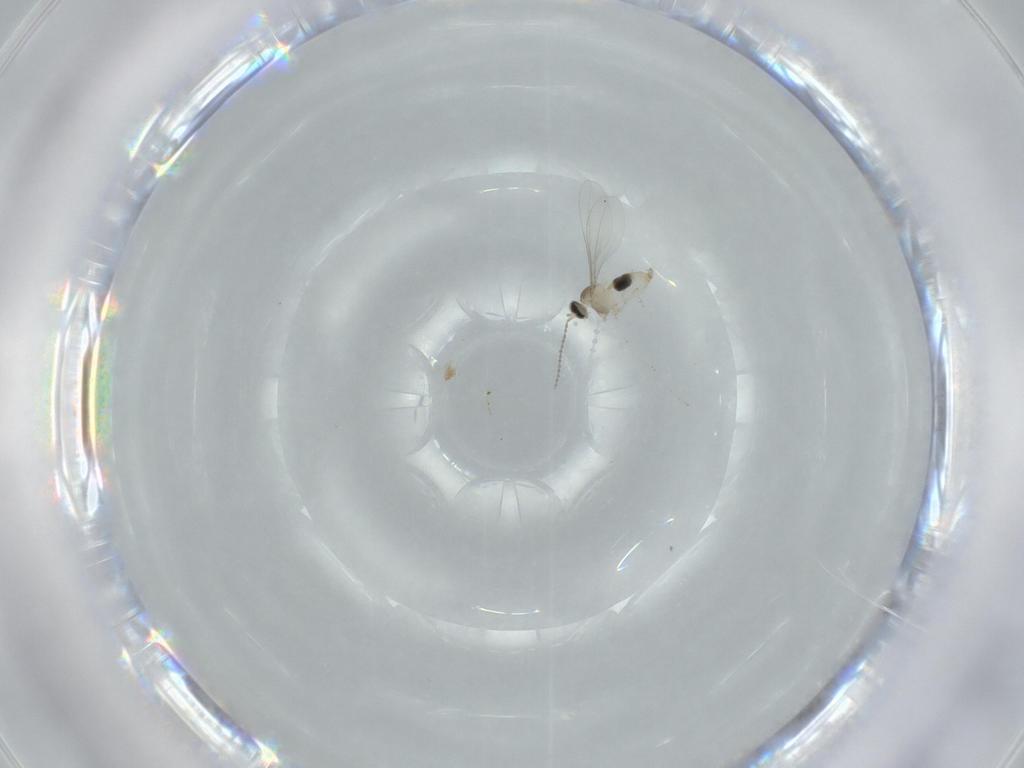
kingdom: Animalia
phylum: Arthropoda
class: Insecta
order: Diptera
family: Cecidomyiidae
